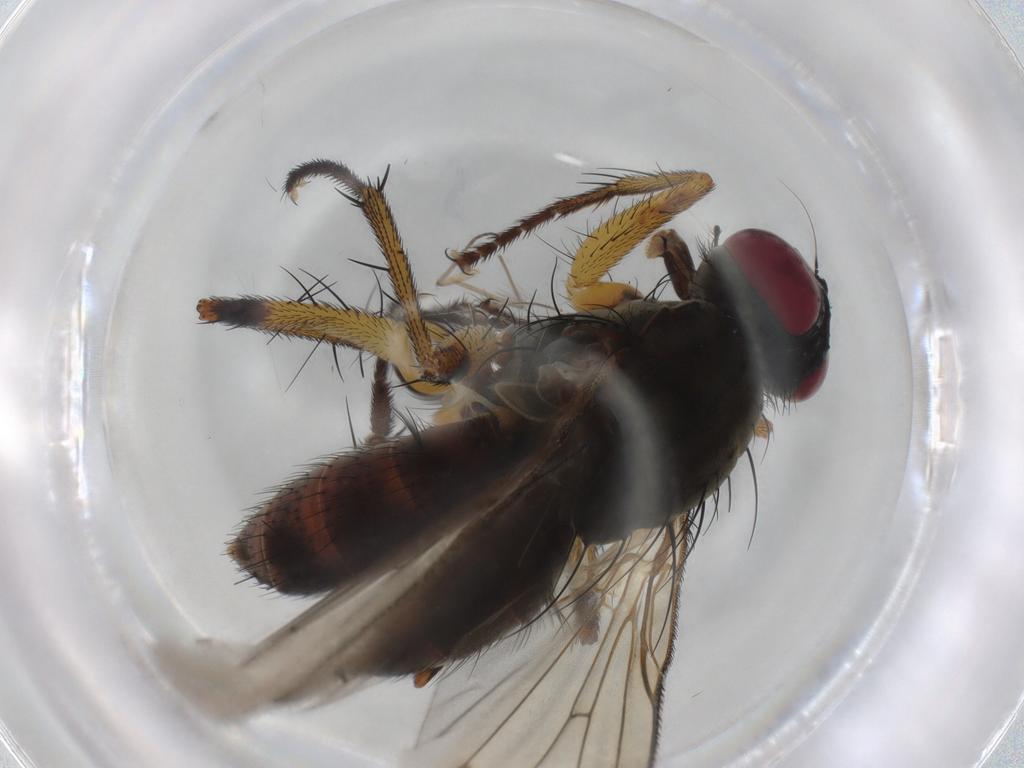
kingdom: Animalia
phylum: Arthropoda
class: Insecta
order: Diptera
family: Muscidae
